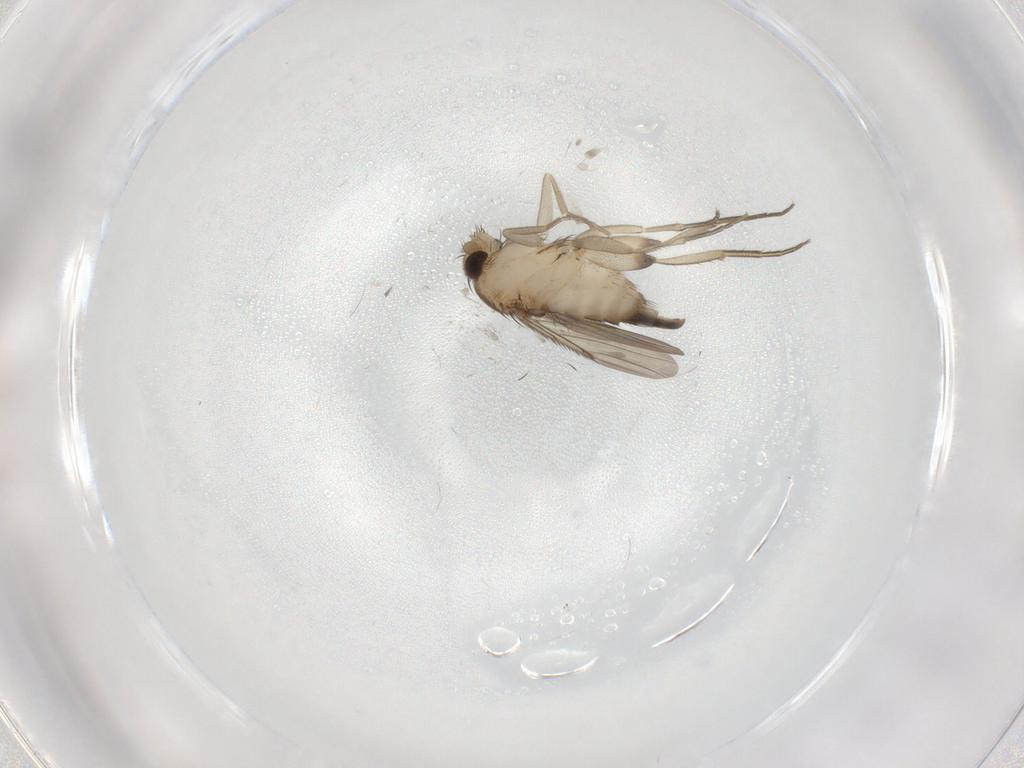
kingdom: Animalia
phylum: Arthropoda
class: Insecta
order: Diptera
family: Phoridae
